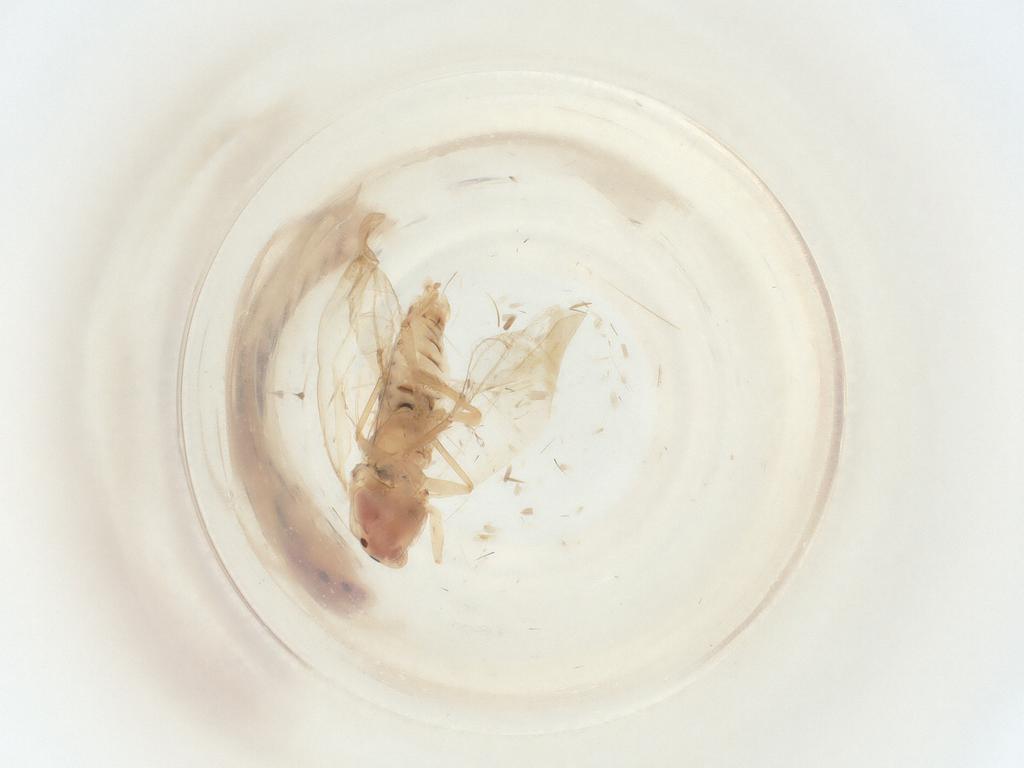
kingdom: Animalia
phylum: Arthropoda
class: Insecta
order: Hemiptera
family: Cicadellidae
